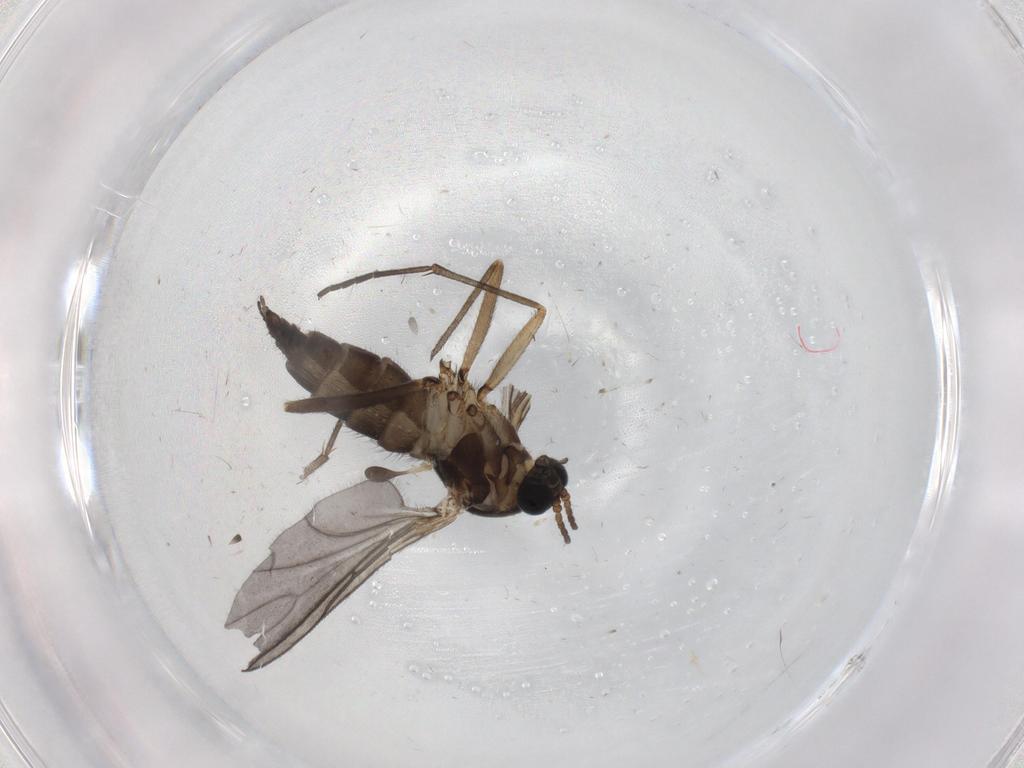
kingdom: Animalia
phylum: Arthropoda
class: Insecta
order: Diptera
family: Sciaridae
